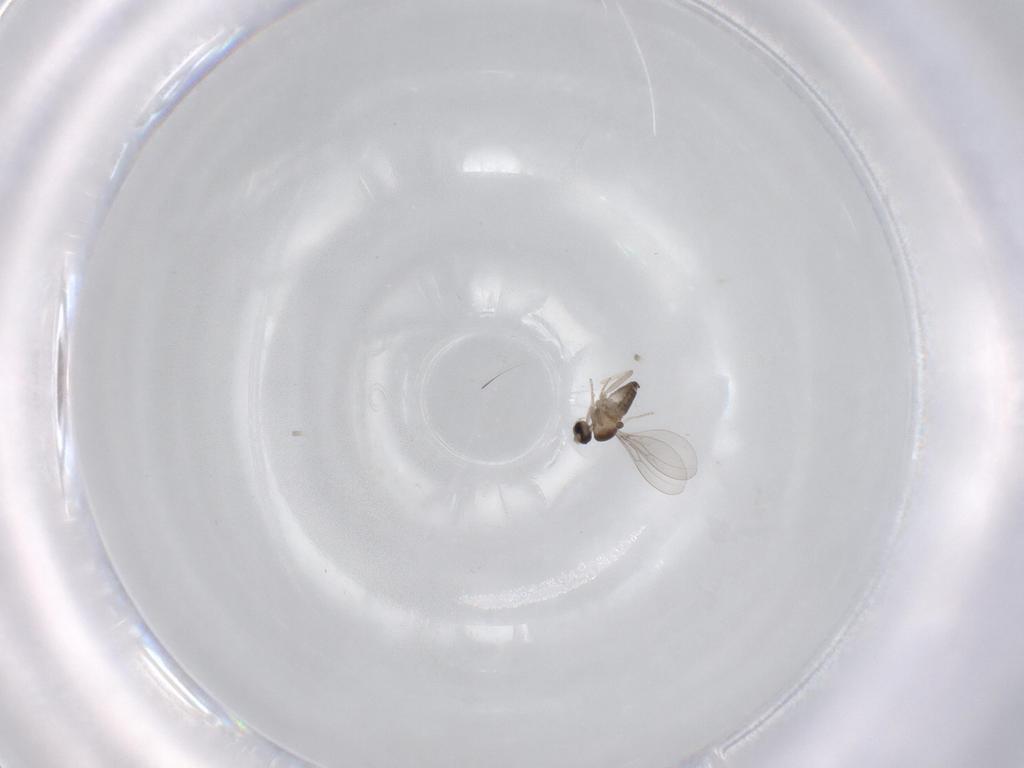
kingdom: Animalia
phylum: Arthropoda
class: Insecta
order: Diptera
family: Cecidomyiidae
